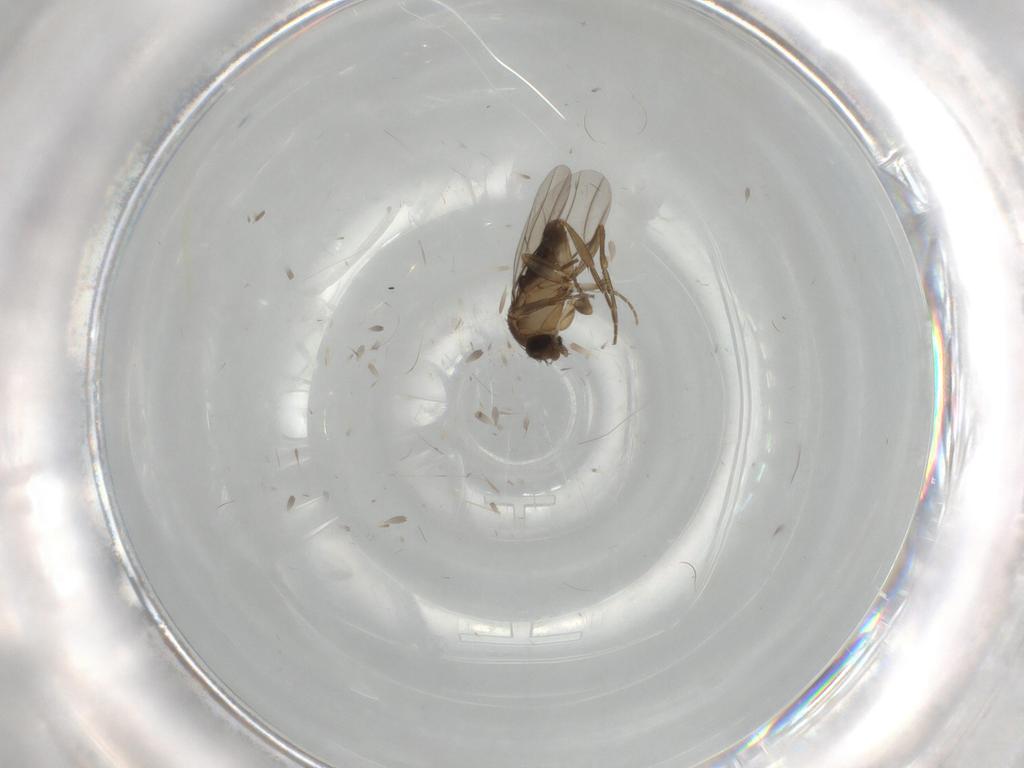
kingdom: Animalia
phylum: Arthropoda
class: Insecta
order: Diptera
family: Phoridae
